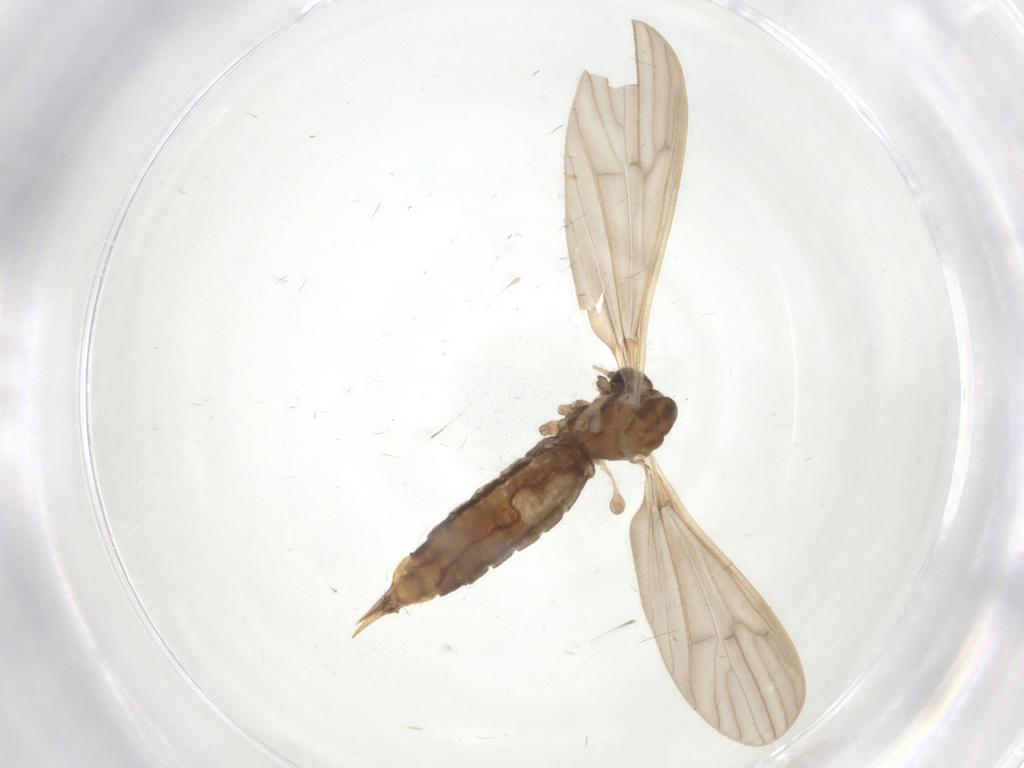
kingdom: Animalia
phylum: Arthropoda
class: Insecta
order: Diptera
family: Limoniidae
